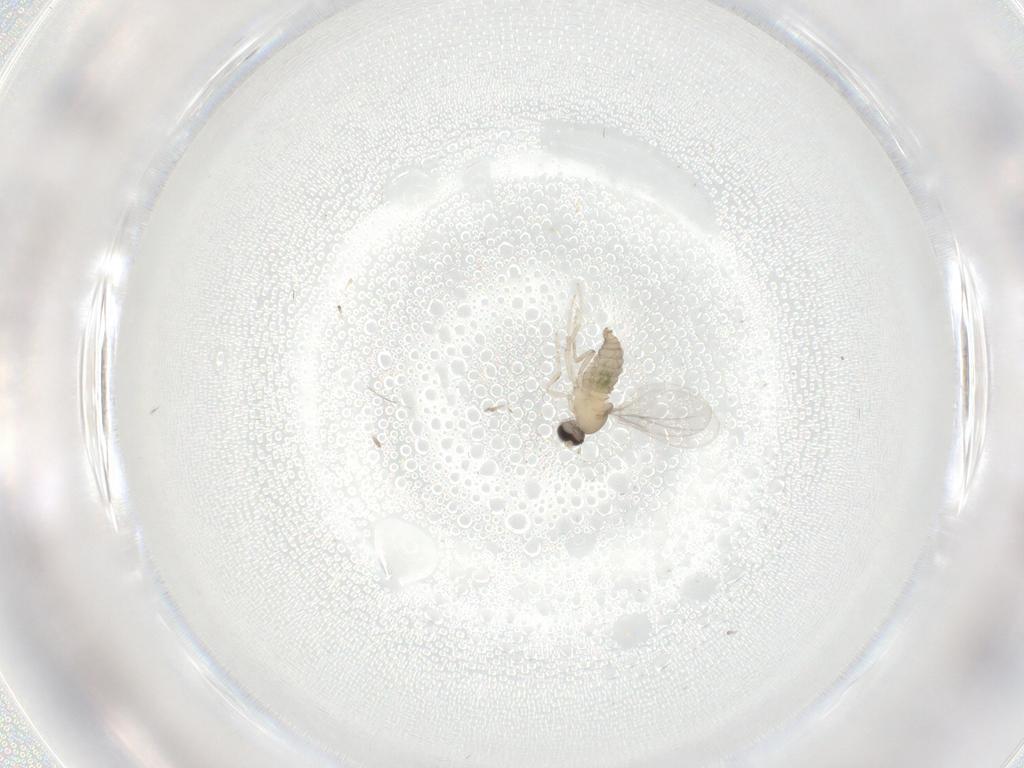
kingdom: Animalia
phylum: Arthropoda
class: Insecta
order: Diptera
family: Cecidomyiidae
